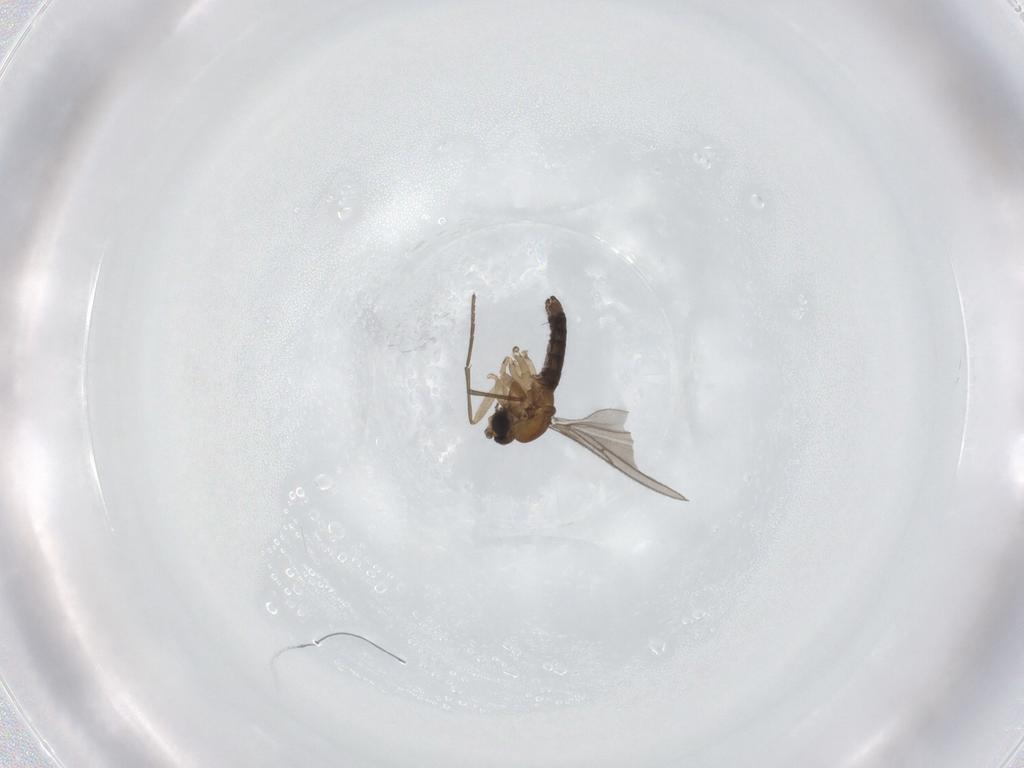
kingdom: Animalia
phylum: Arthropoda
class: Insecta
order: Diptera
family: Sciaridae
